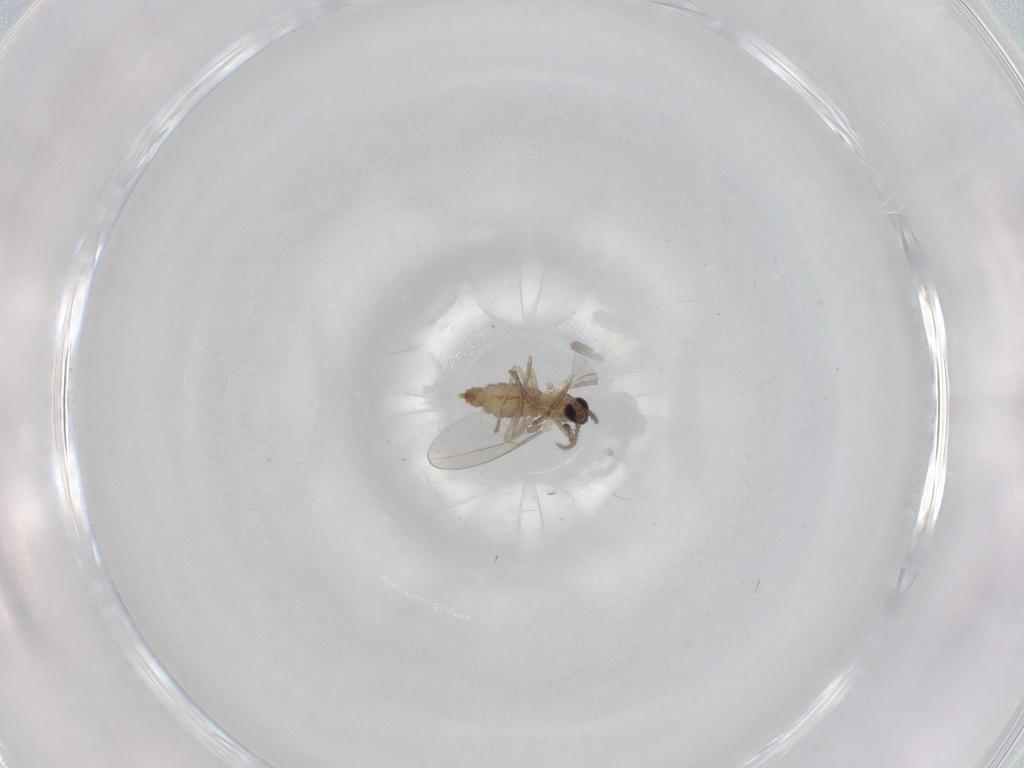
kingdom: Animalia
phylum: Arthropoda
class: Insecta
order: Diptera
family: Cecidomyiidae
